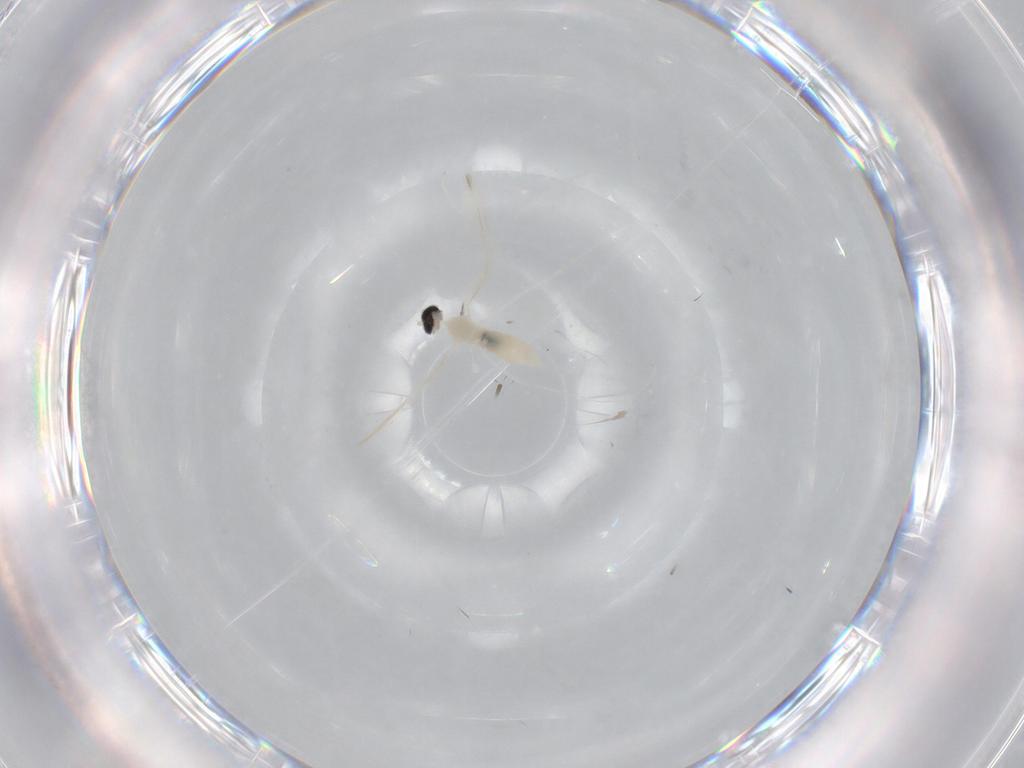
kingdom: Animalia
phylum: Arthropoda
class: Insecta
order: Diptera
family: Cecidomyiidae
